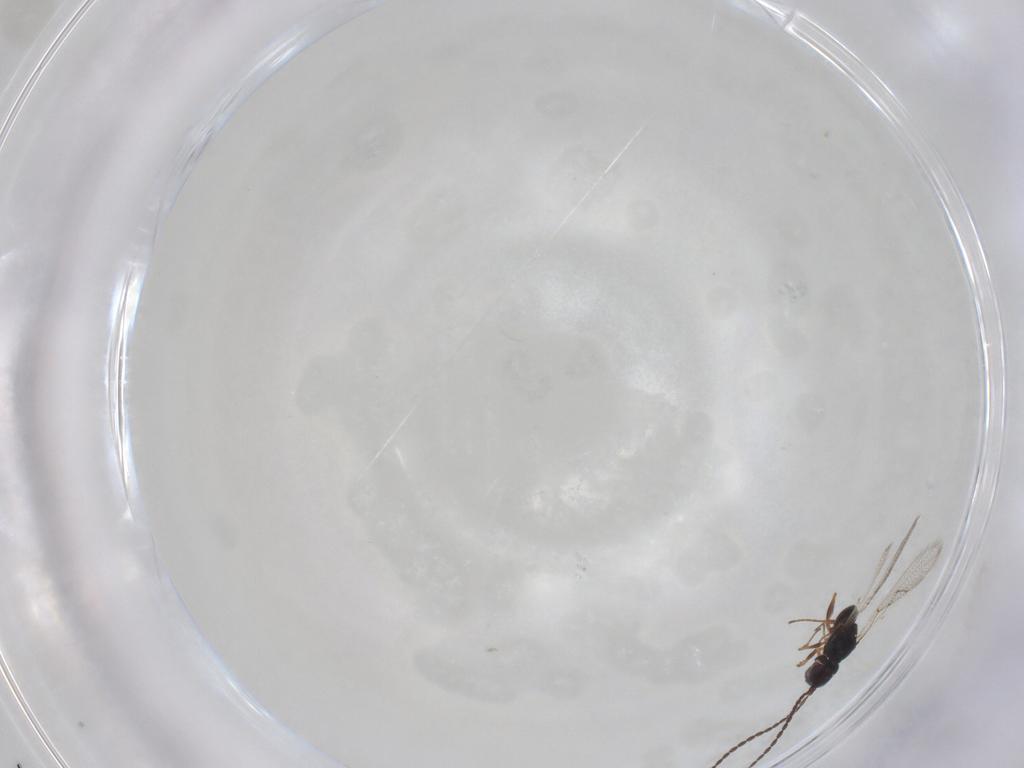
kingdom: Animalia
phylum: Arthropoda
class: Insecta
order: Hymenoptera
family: Figitidae
